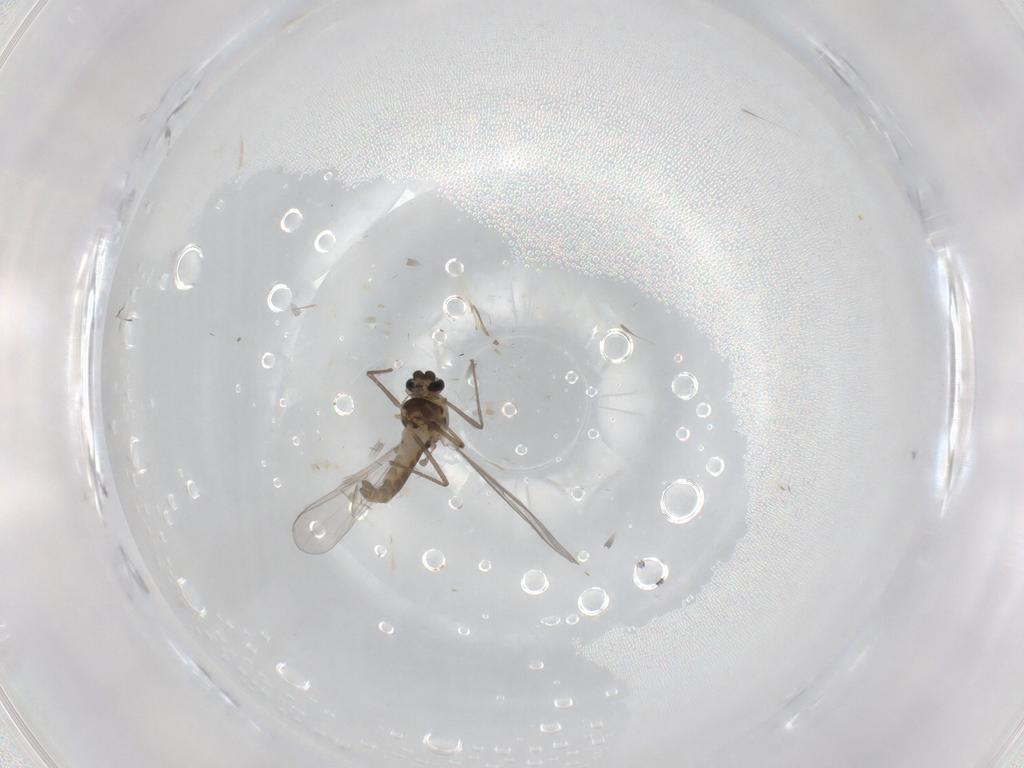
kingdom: Animalia
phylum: Arthropoda
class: Insecta
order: Diptera
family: Chironomidae
